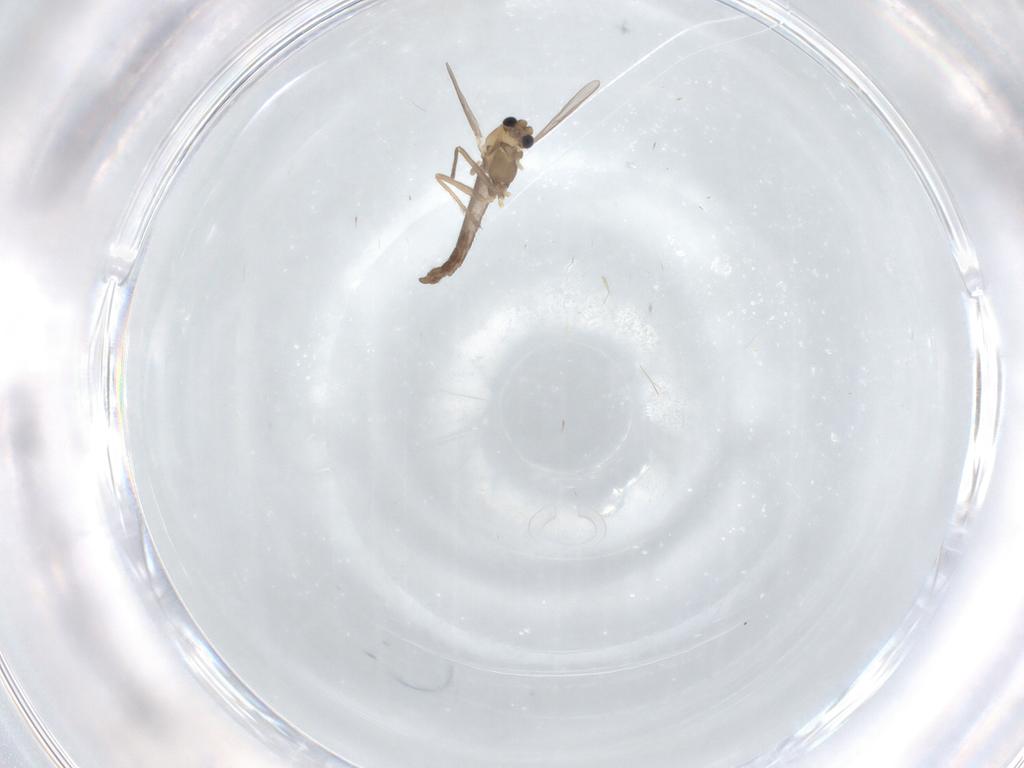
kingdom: Animalia
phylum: Arthropoda
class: Insecta
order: Diptera
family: Chironomidae
